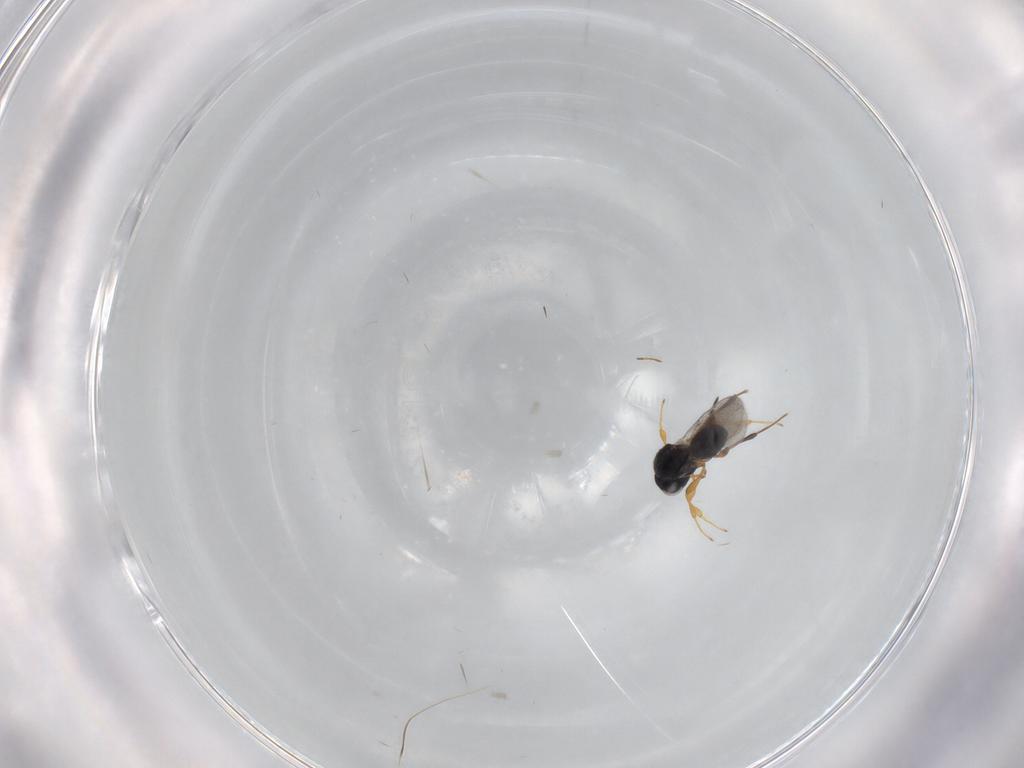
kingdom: Animalia
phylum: Arthropoda
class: Insecta
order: Hymenoptera
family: Platygastridae
